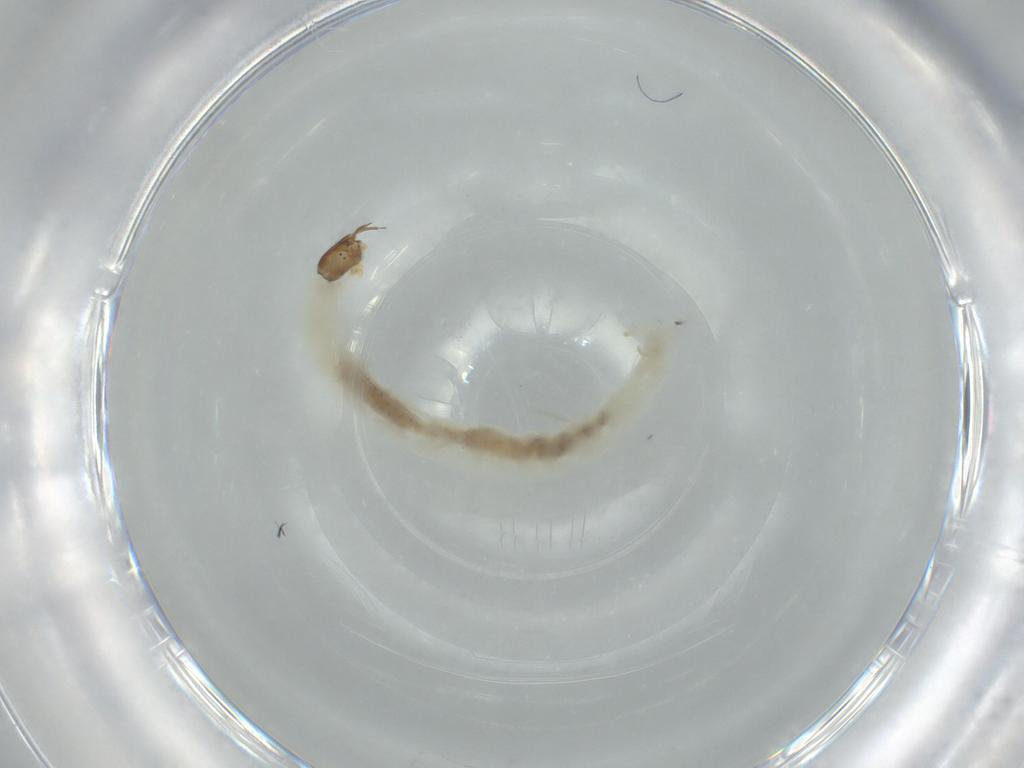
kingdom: Animalia
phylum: Arthropoda
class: Insecta
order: Diptera
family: Chironomidae
